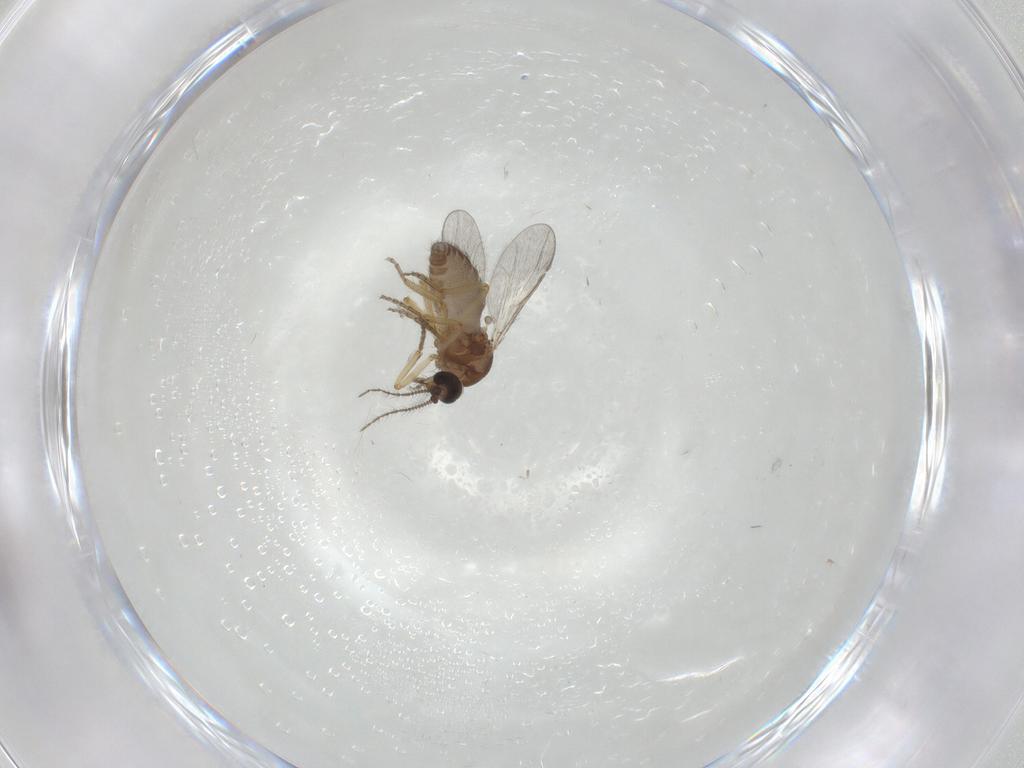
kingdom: Animalia
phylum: Arthropoda
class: Insecta
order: Diptera
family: Ceratopogonidae
